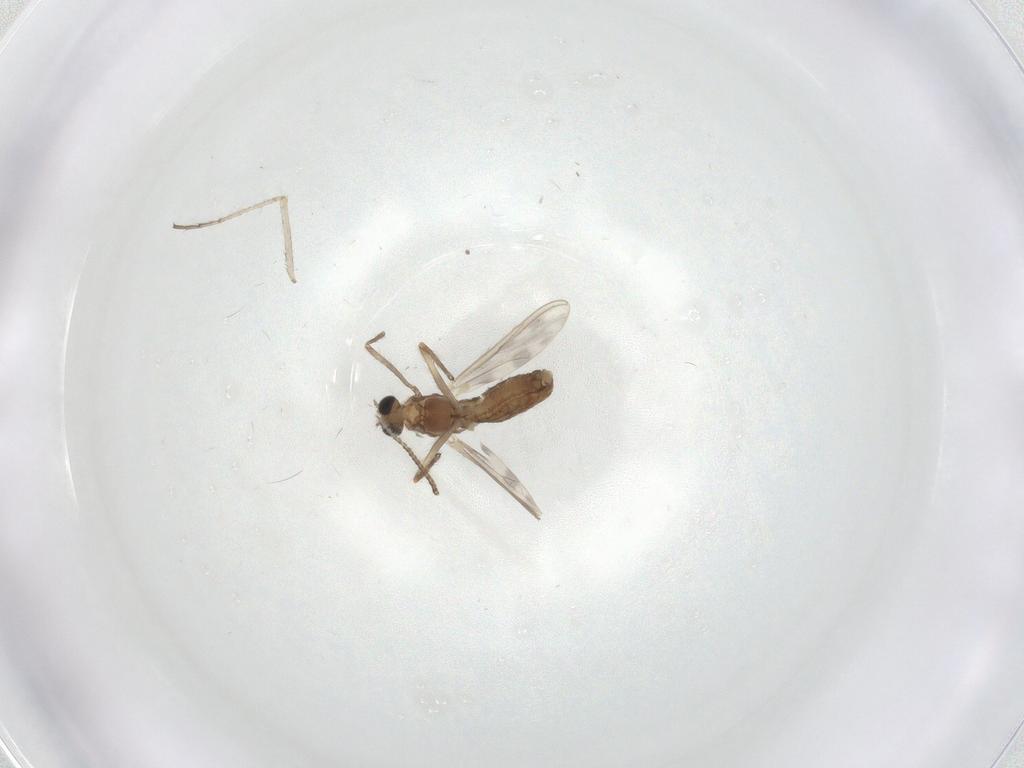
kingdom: Animalia
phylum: Arthropoda
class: Insecta
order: Diptera
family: Chironomidae
